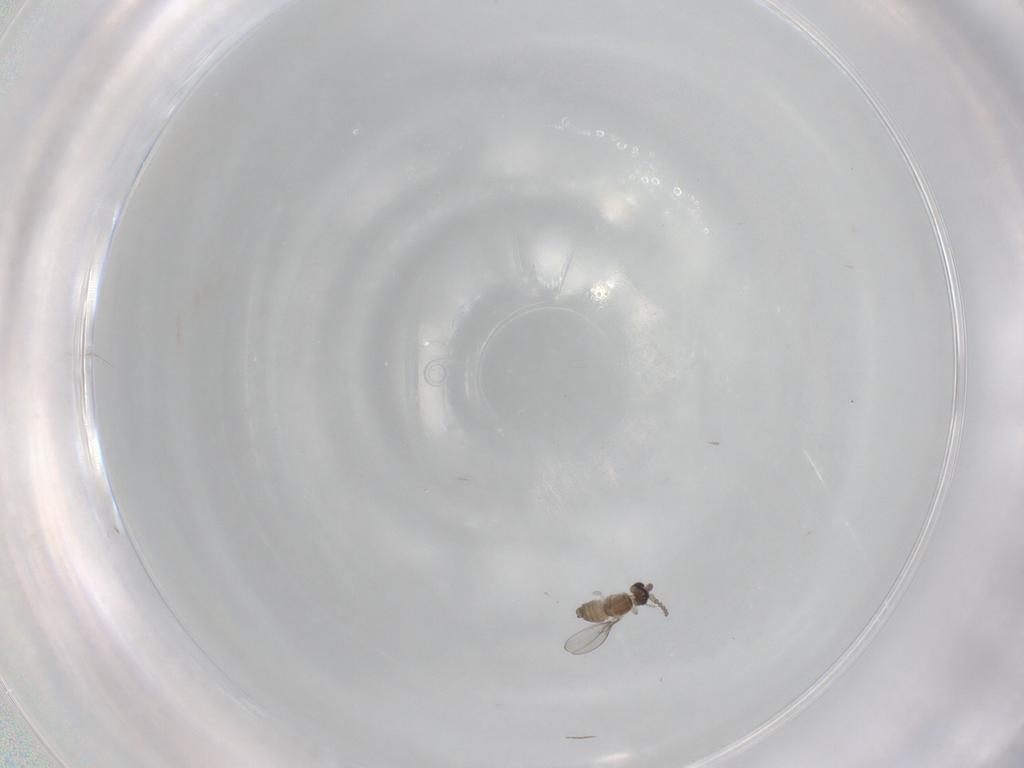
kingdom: Animalia
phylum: Arthropoda
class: Insecta
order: Diptera
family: Cecidomyiidae
